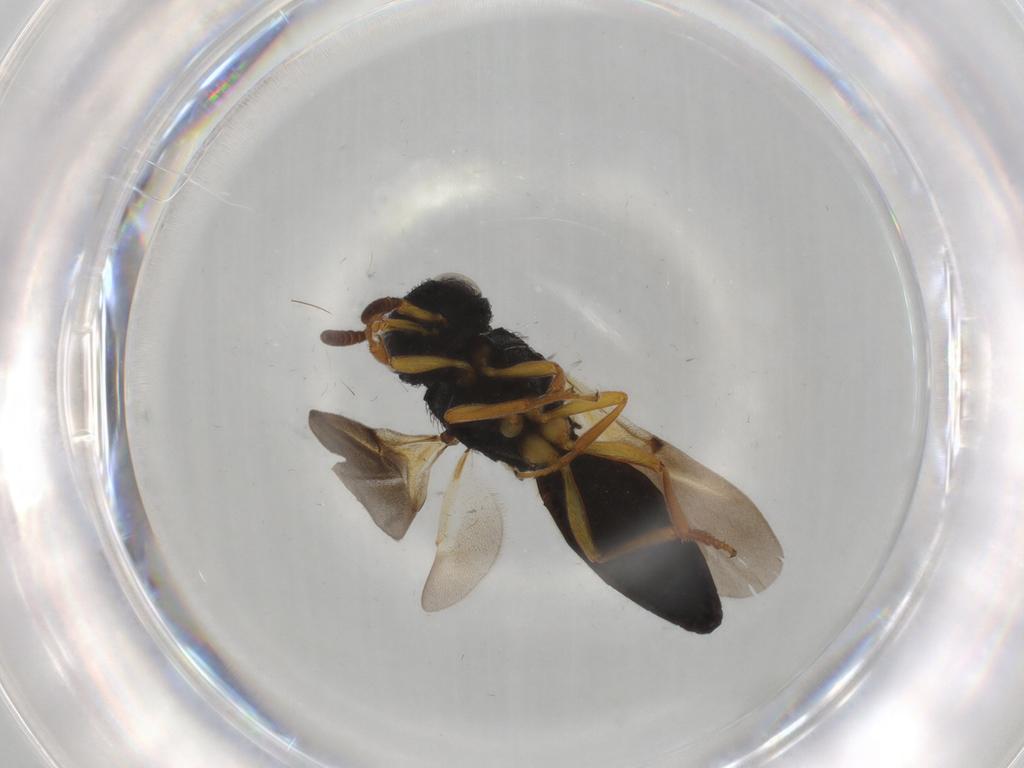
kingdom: Animalia
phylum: Arthropoda
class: Insecta
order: Hymenoptera
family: Scelionidae
